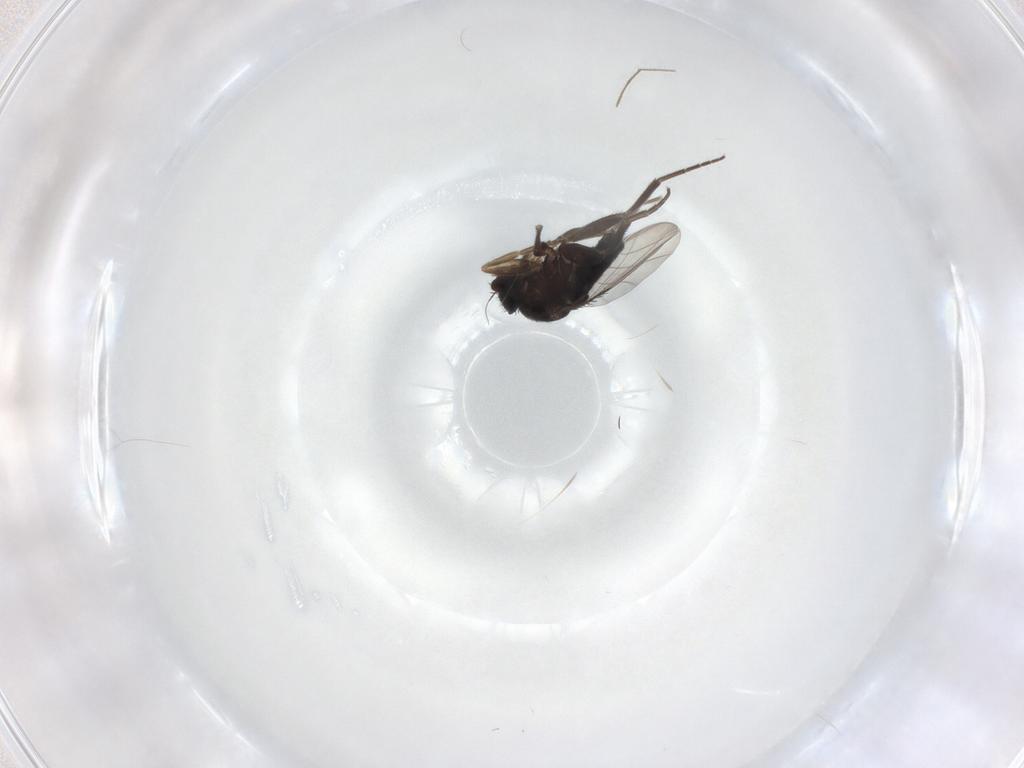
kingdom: Animalia
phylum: Arthropoda
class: Insecta
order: Diptera
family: Phoridae
